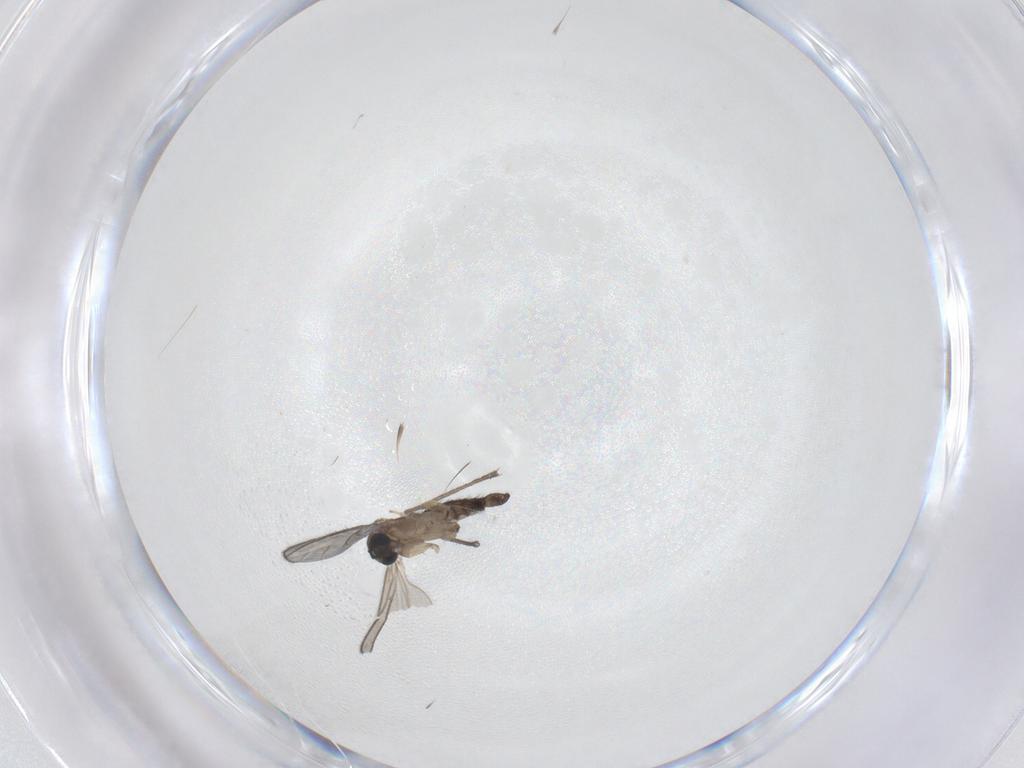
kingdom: Animalia
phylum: Arthropoda
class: Insecta
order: Diptera
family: Sciaridae
